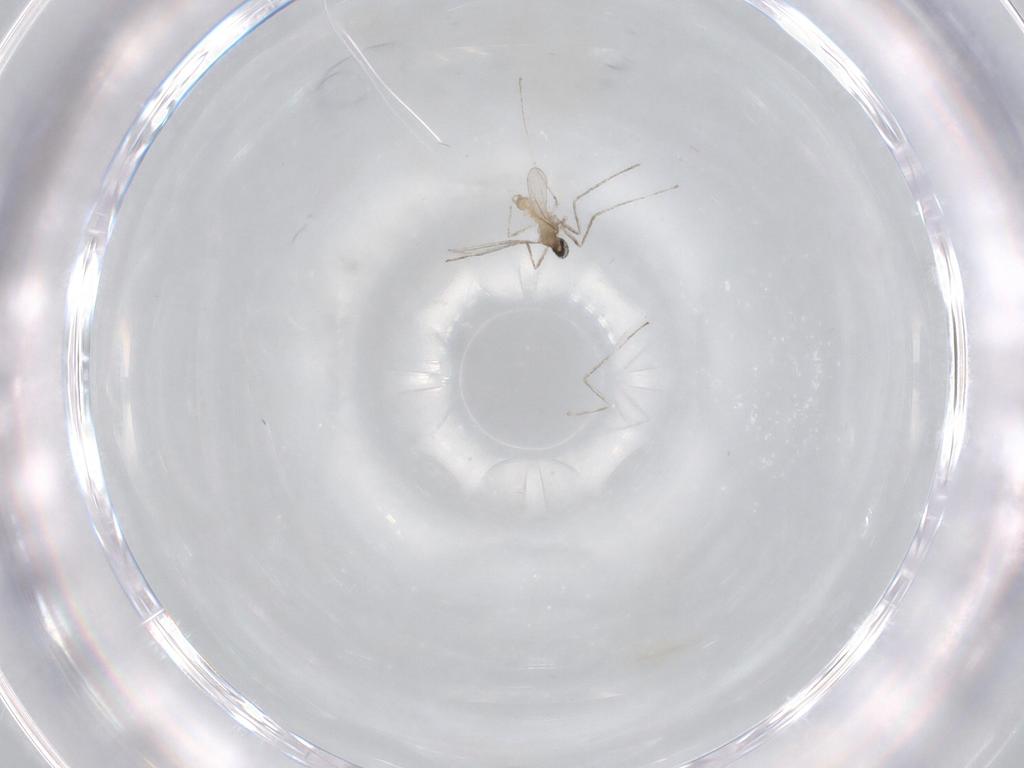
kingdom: Animalia
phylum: Arthropoda
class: Insecta
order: Diptera
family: Cecidomyiidae
